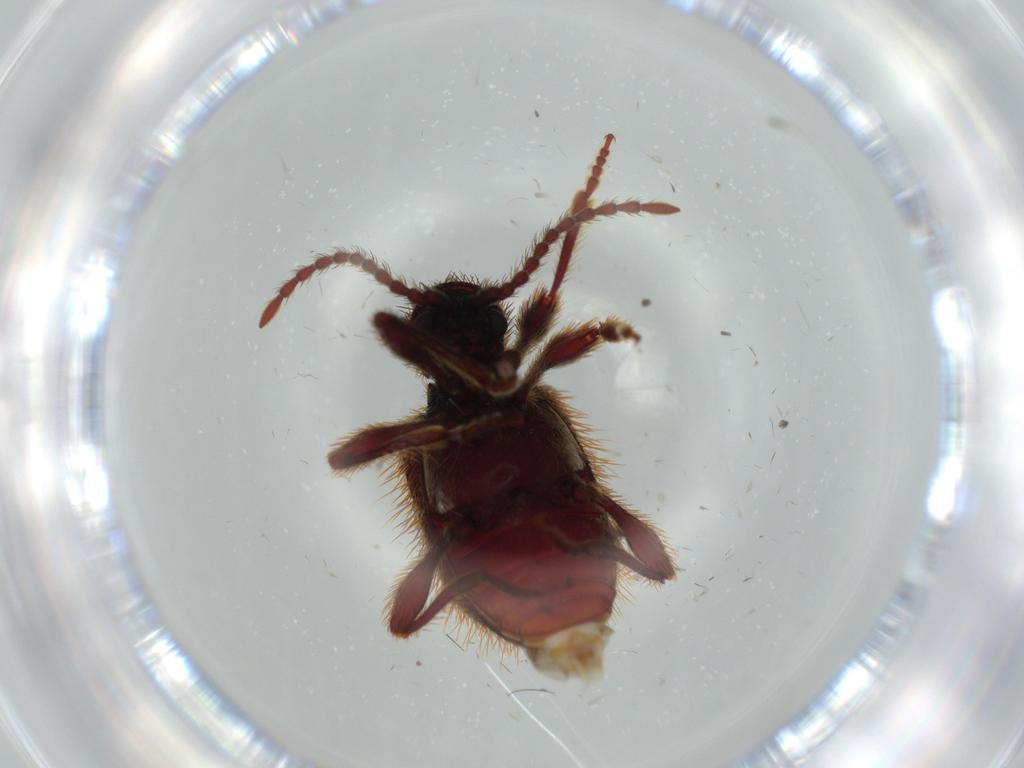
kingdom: Animalia
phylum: Arthropoda
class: Insecta
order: Coleoptera
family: Ptinidae
